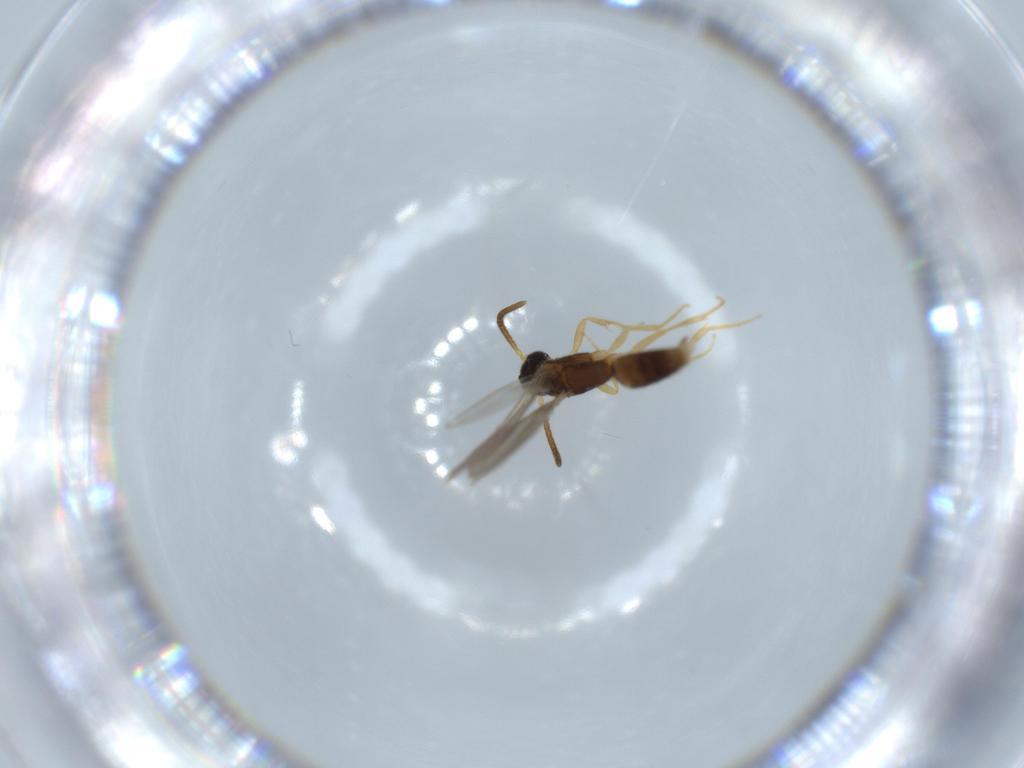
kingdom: Animalia
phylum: Arthropoda
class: Insecta
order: Hymenoptera
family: Bethylidae
